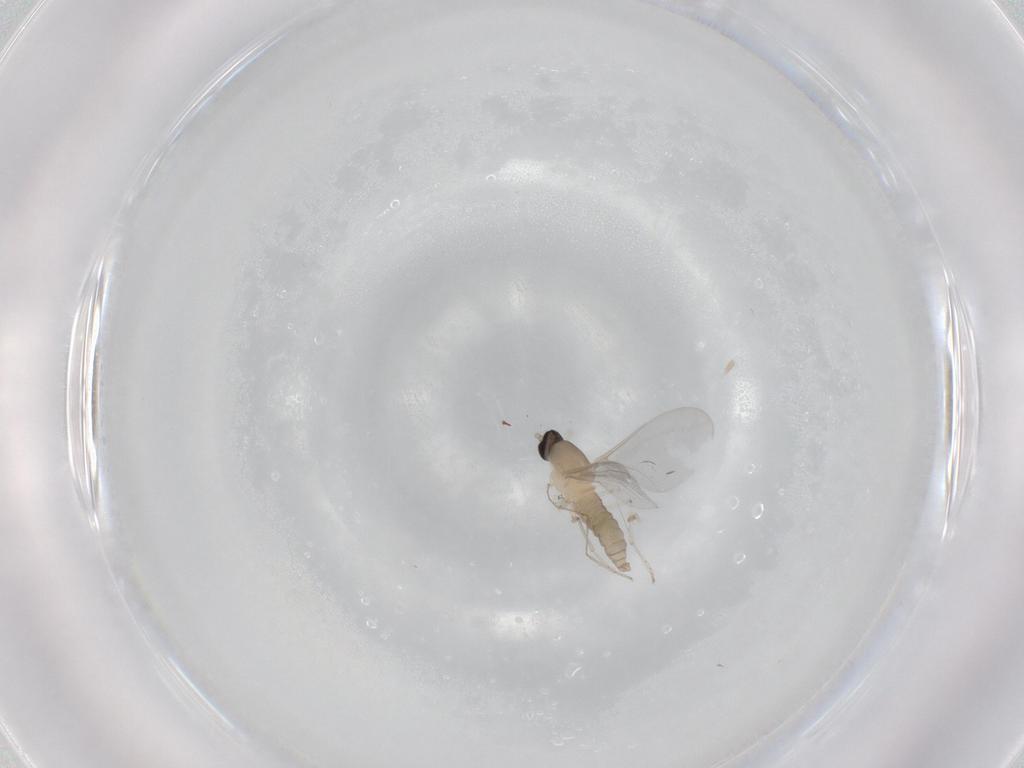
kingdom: Animalia
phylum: Arthropoda
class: Insecta
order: Diptera
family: Cecidomyiidae
